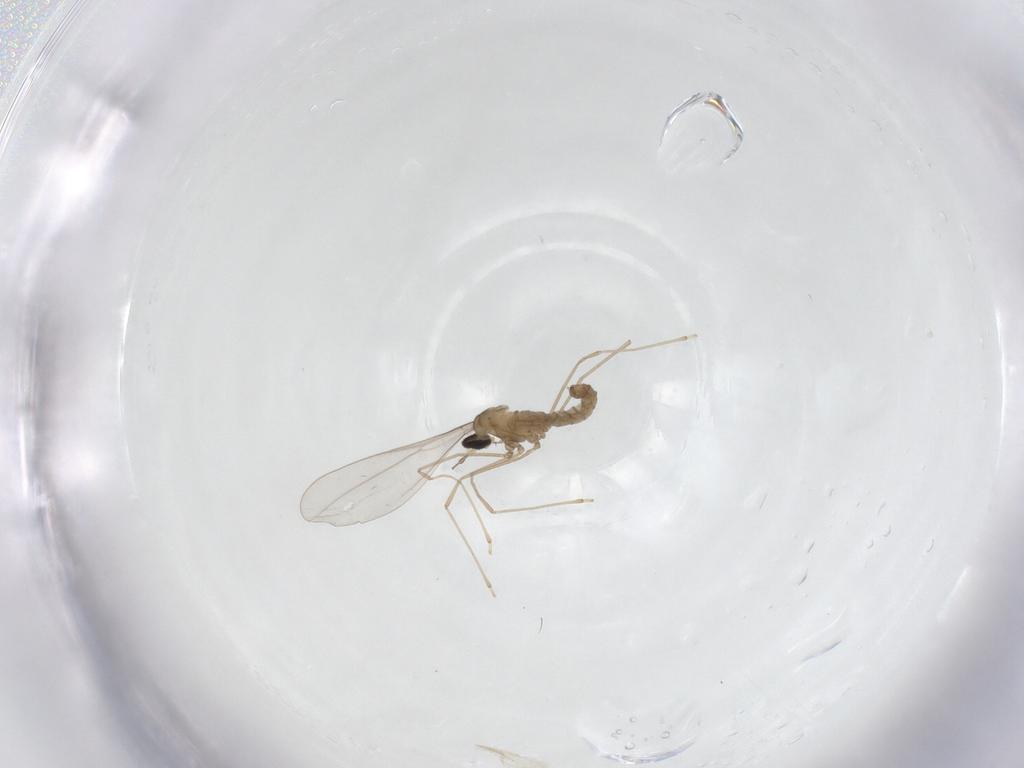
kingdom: Animalia
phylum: Arthropoda
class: Insecta
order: Diptera
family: Cecidomyiidae
